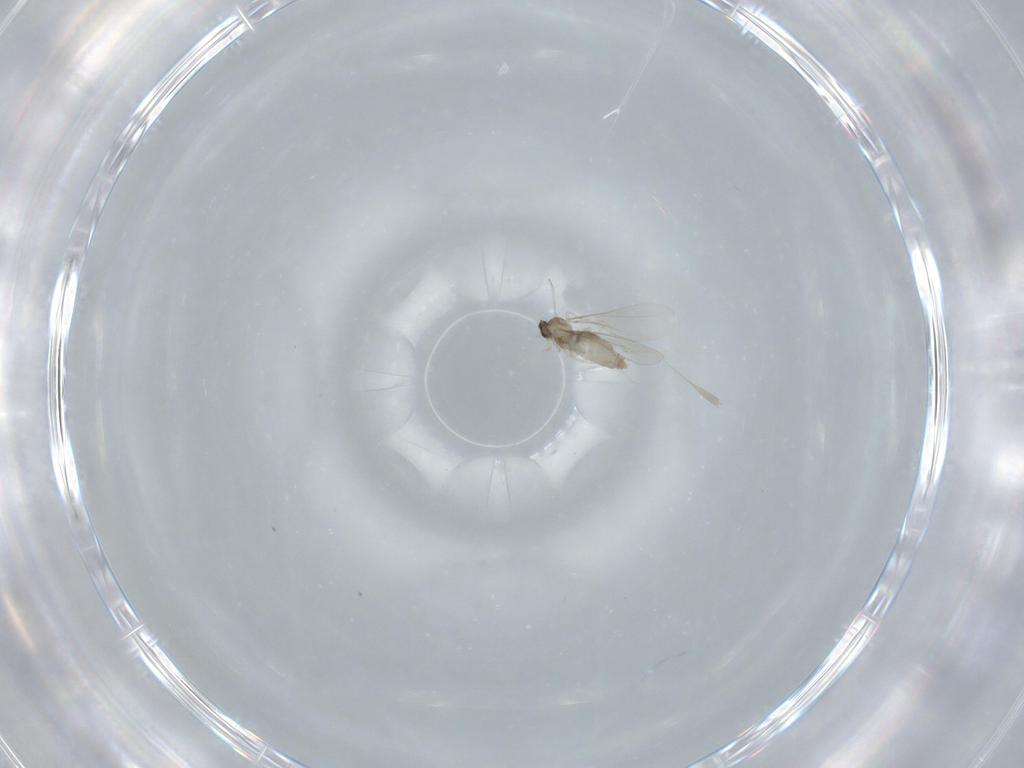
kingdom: Animalia
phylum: Arthropoda
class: Insecta
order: Diptera
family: Cecidomyiidae
